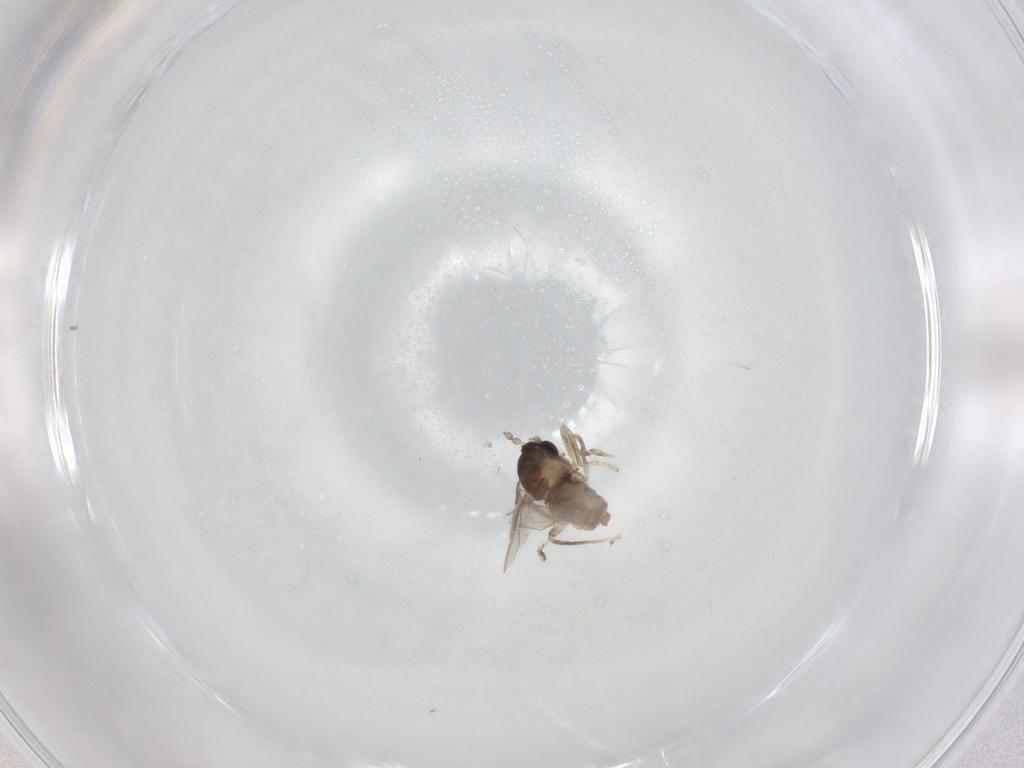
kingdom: Animalia
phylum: Arthropoda
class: Insecta
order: Diptera
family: Cecidomyiidae
